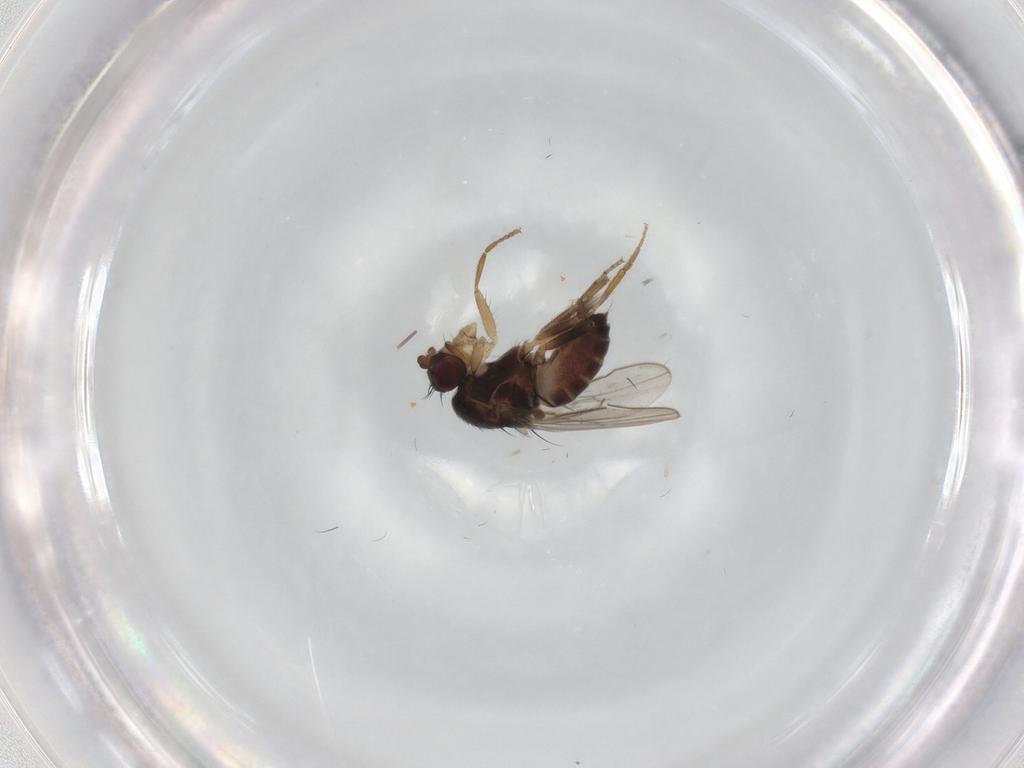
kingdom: Animalia
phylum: Arthropoda
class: Insecta
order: Diptera
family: Sphaeroceridae
